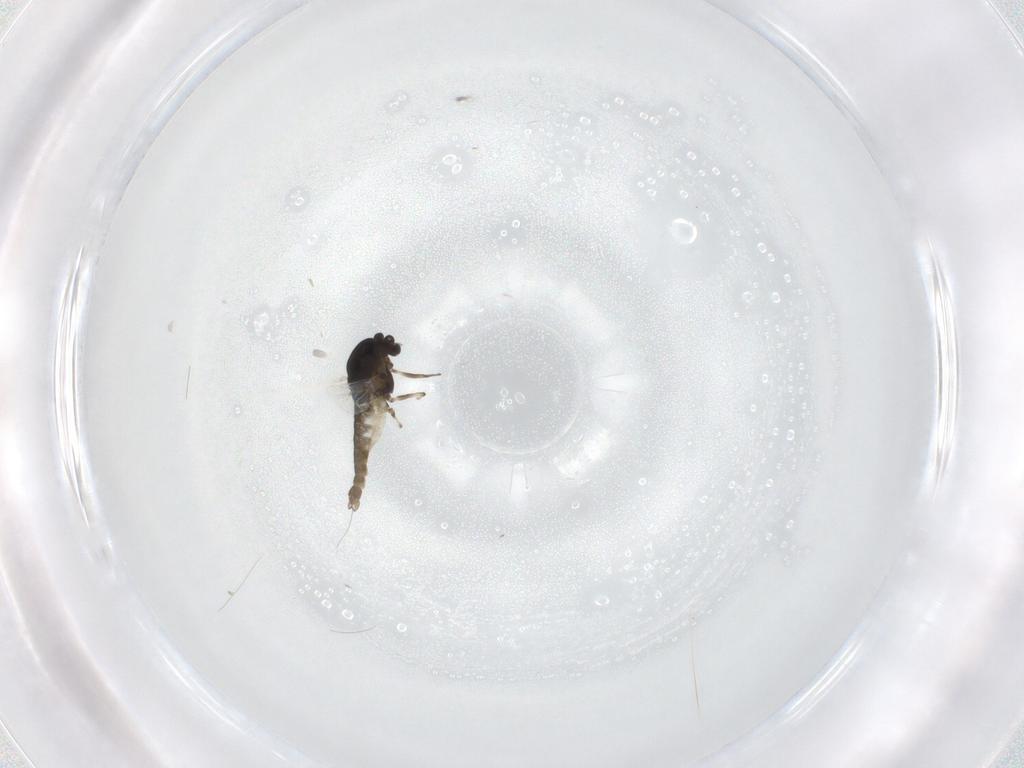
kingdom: Animalia
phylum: Arthropoda
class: Insecta
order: Diptera
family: Chironomidae
